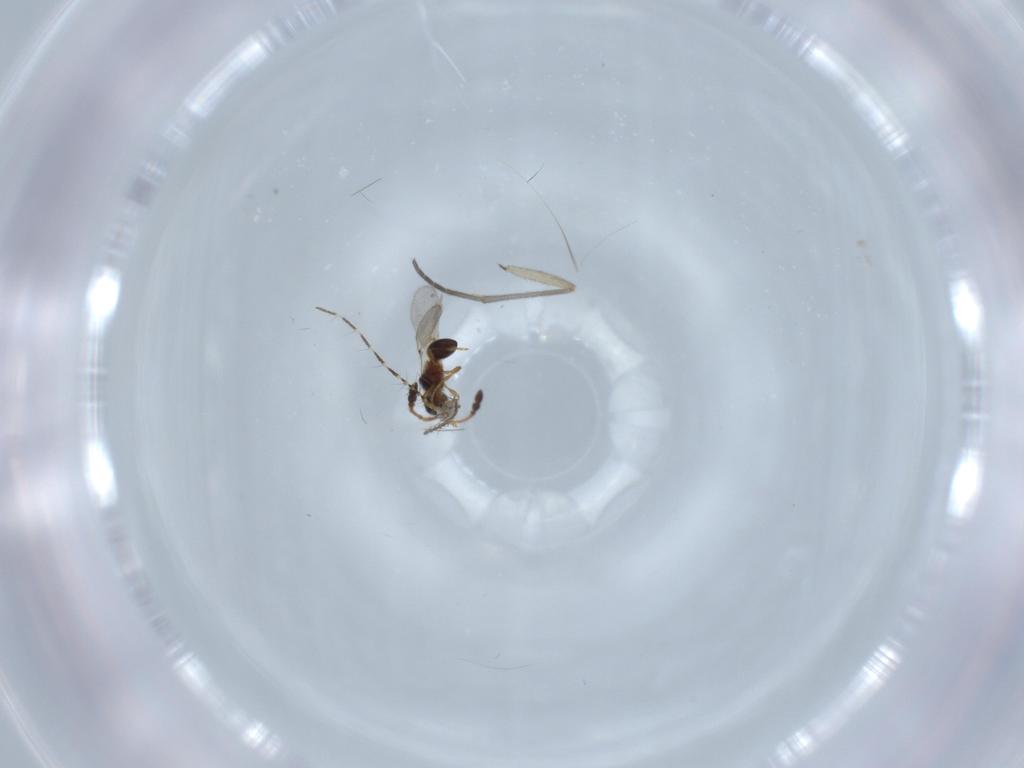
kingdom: Animalia
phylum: Arthropoda
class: Insecta
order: Hymenoptera
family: Diapriidae
